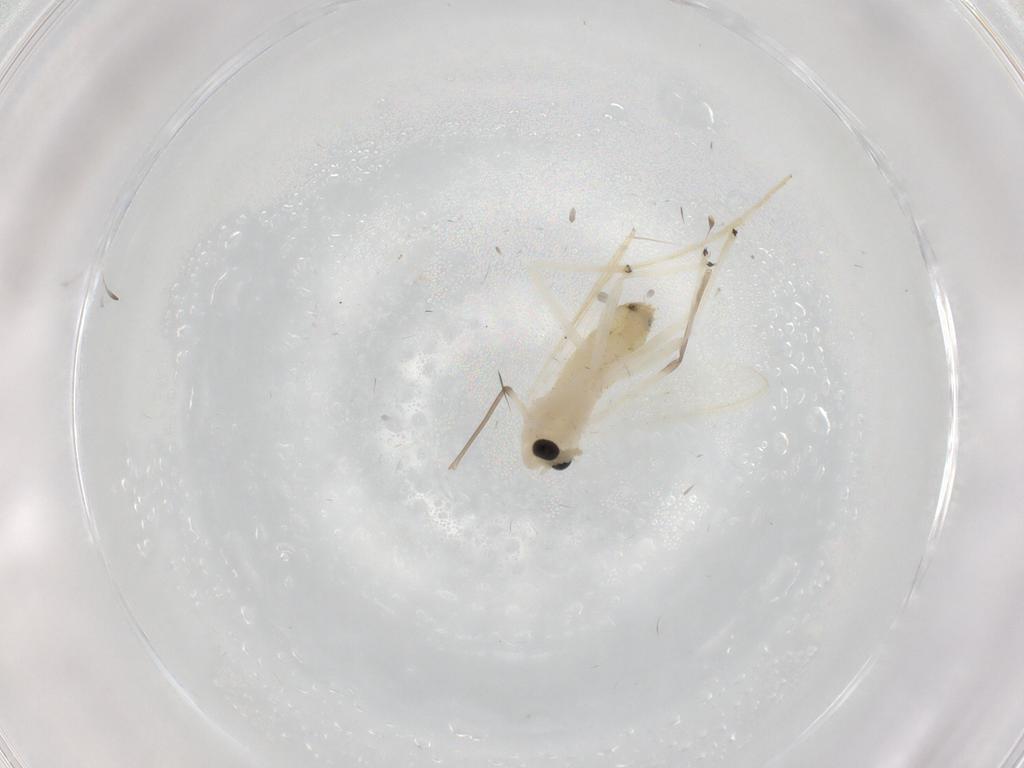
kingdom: Animalia
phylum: Arthropoda
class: Insecta
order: Diptera
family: Chironomidae
